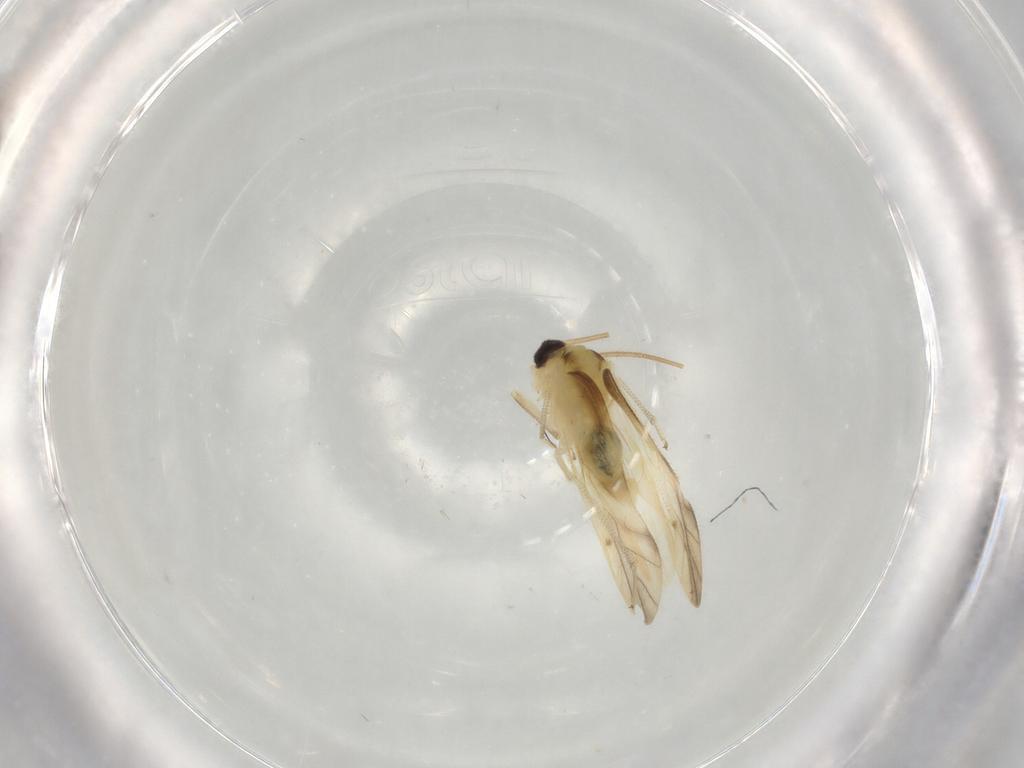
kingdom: Animalia
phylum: Arthropoda
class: Insecta
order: Psocodea
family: Caeciliusidae
